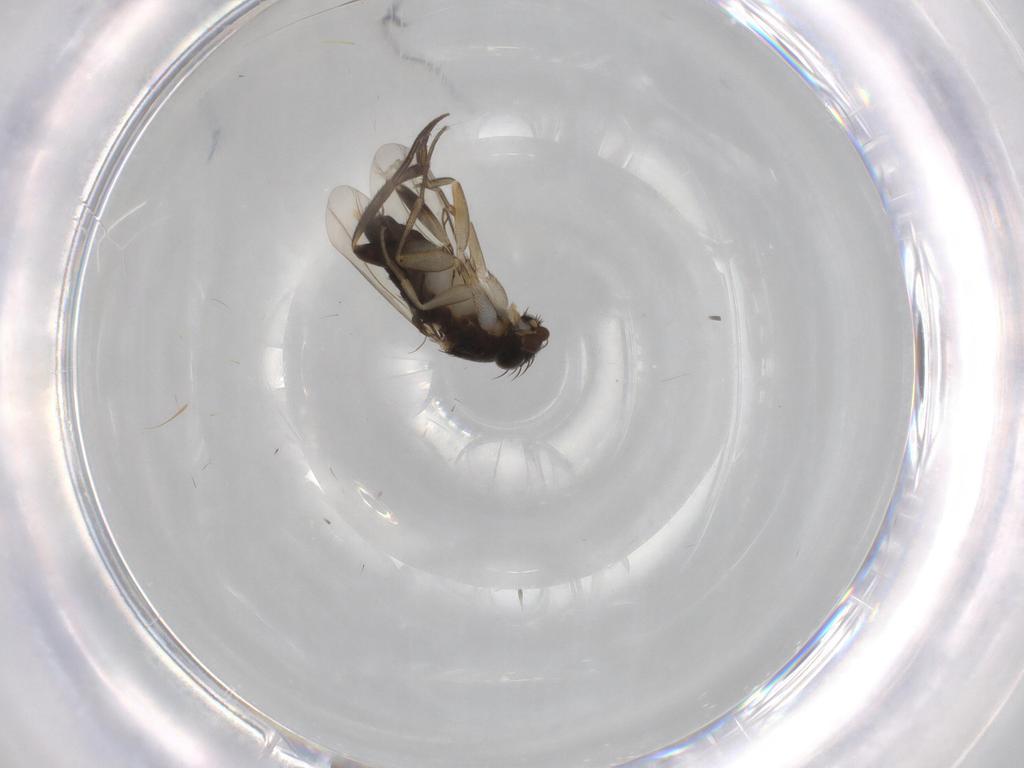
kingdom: Animalia
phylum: Arthropoda
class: Insecta
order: Diptera
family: Phoridae
